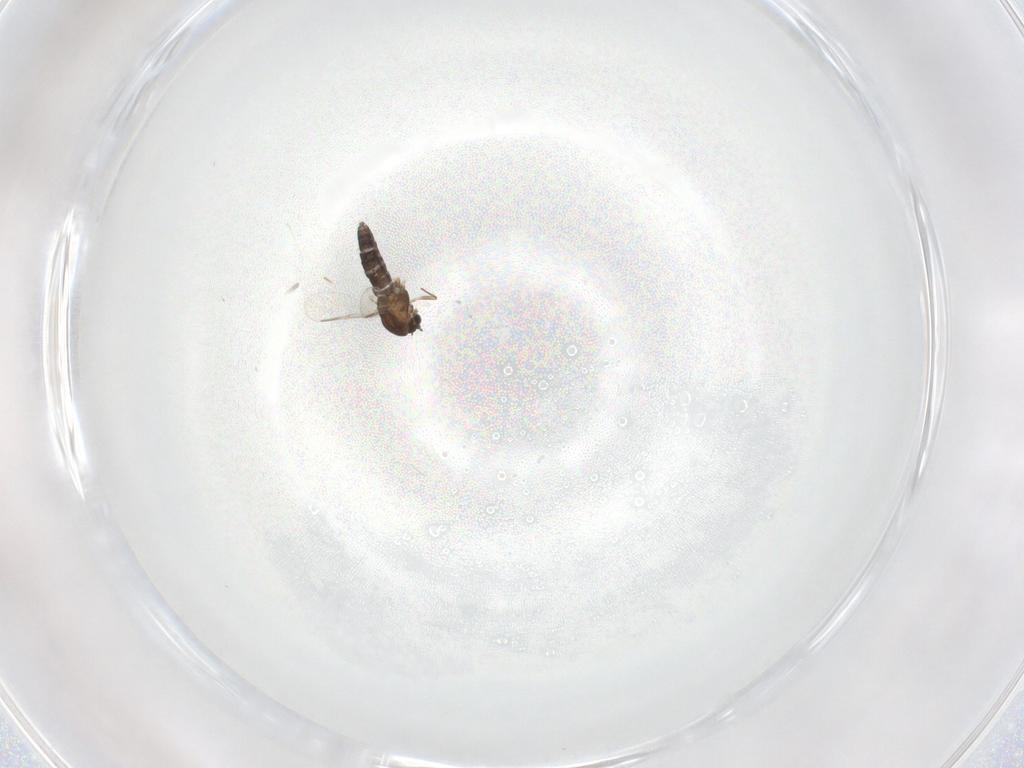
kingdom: Animalia
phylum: Arthropoda
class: Insecta
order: Diptera
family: Chironomidae
